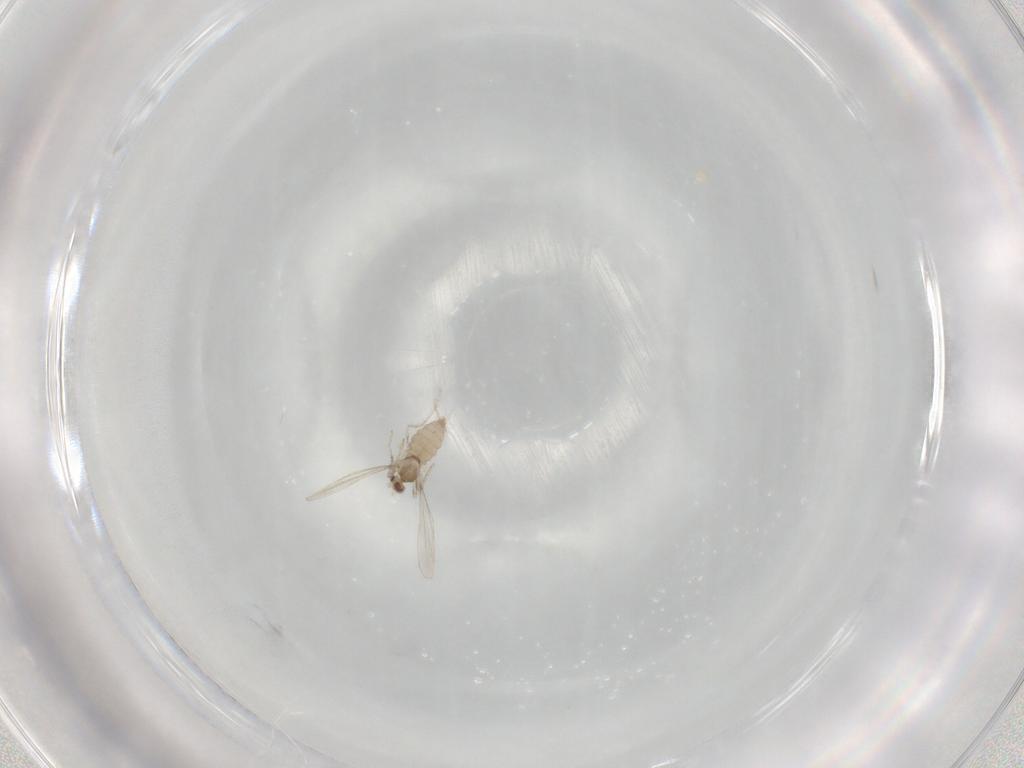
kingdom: Animalia
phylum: Arthropoda
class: Insecta
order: Diptera
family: Cecidomyiidae
